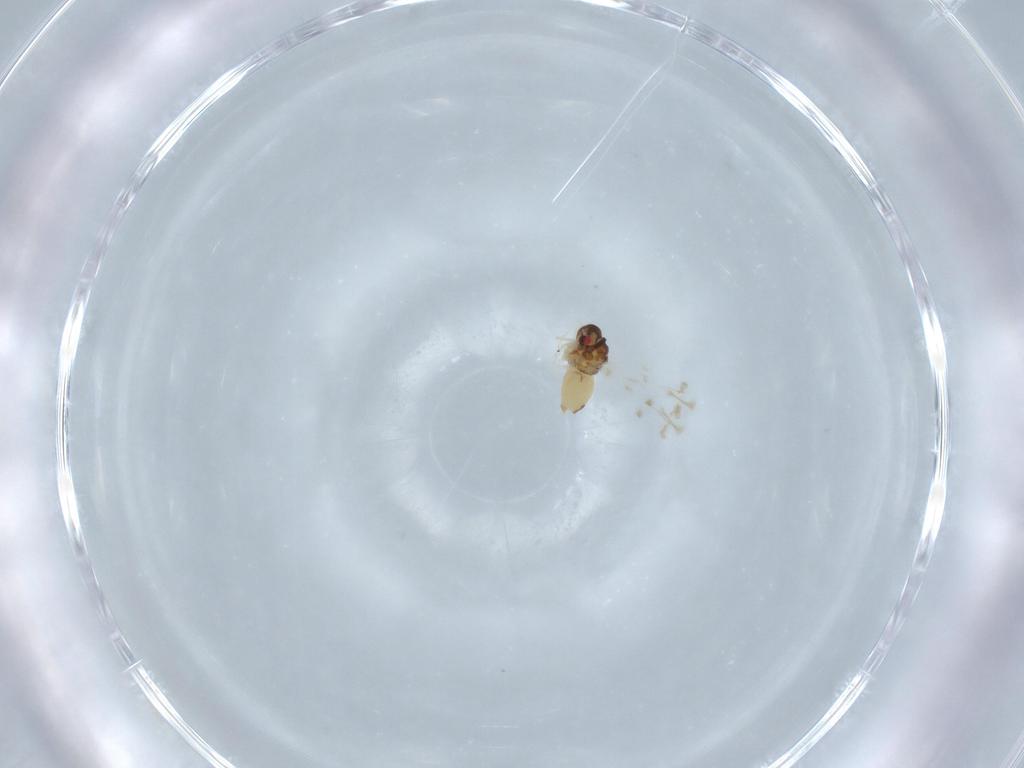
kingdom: Animalia
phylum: Arthropoda
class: Insecta
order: Hemiptera
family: Aleyrodidae
